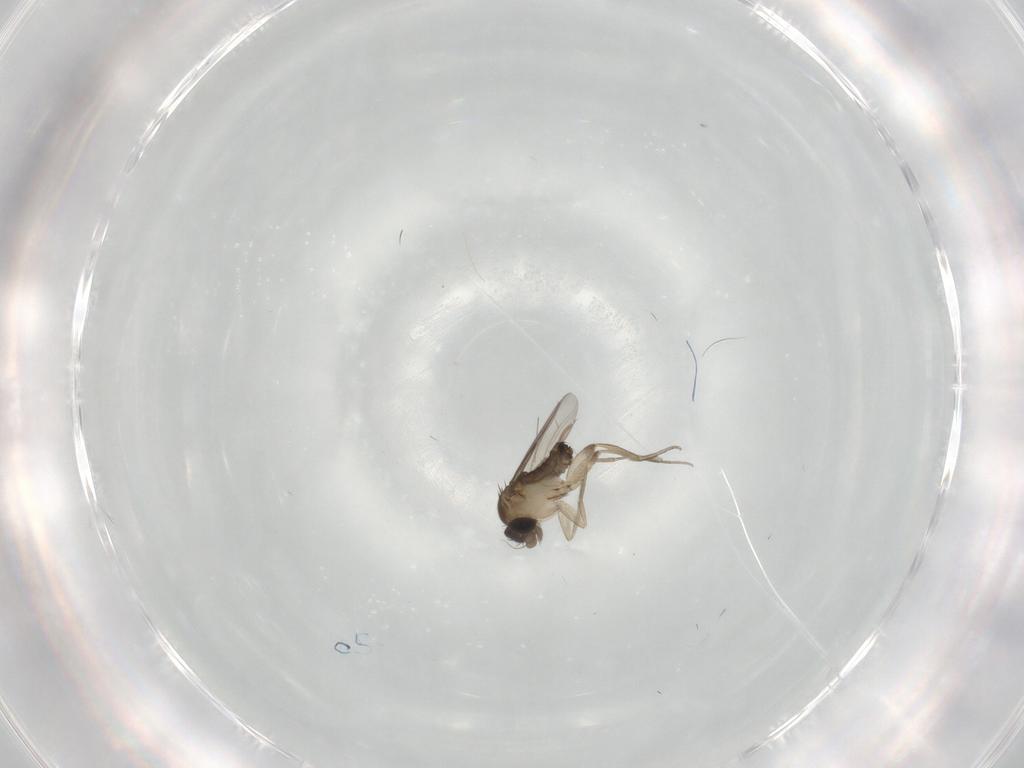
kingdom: Animalia
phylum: Arthropoda
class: Insecta
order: Diptera
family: Phoridae
